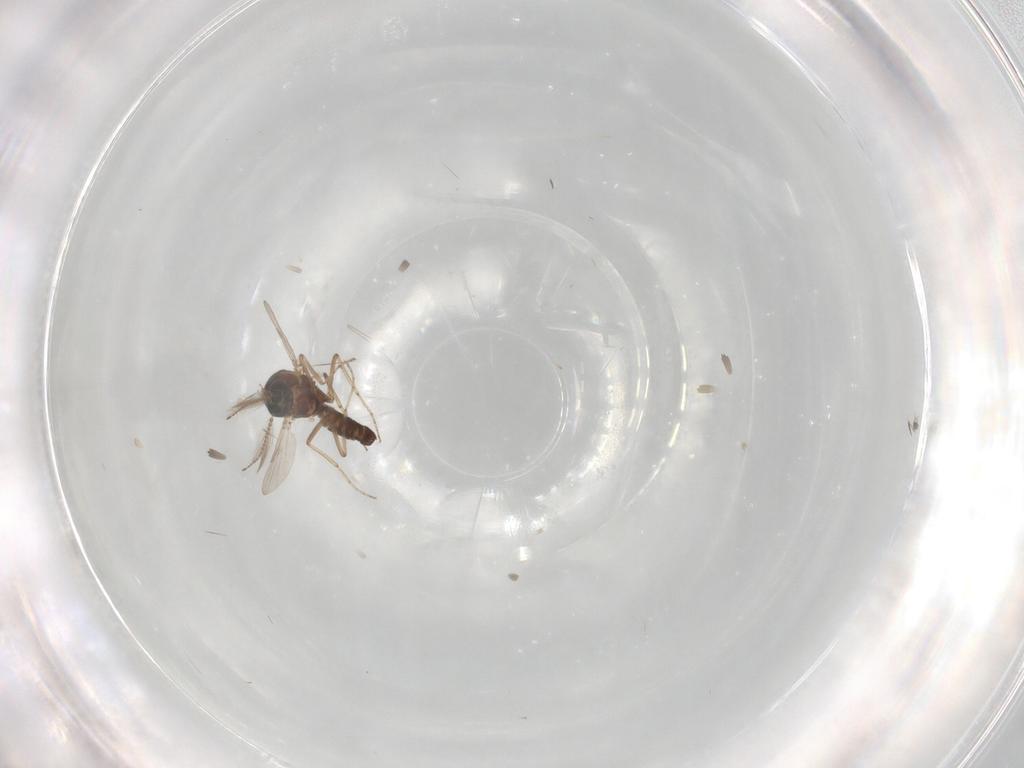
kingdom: Animalia
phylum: Arthropoda
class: Insecta
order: Diptera
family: Ceratopogonidae
